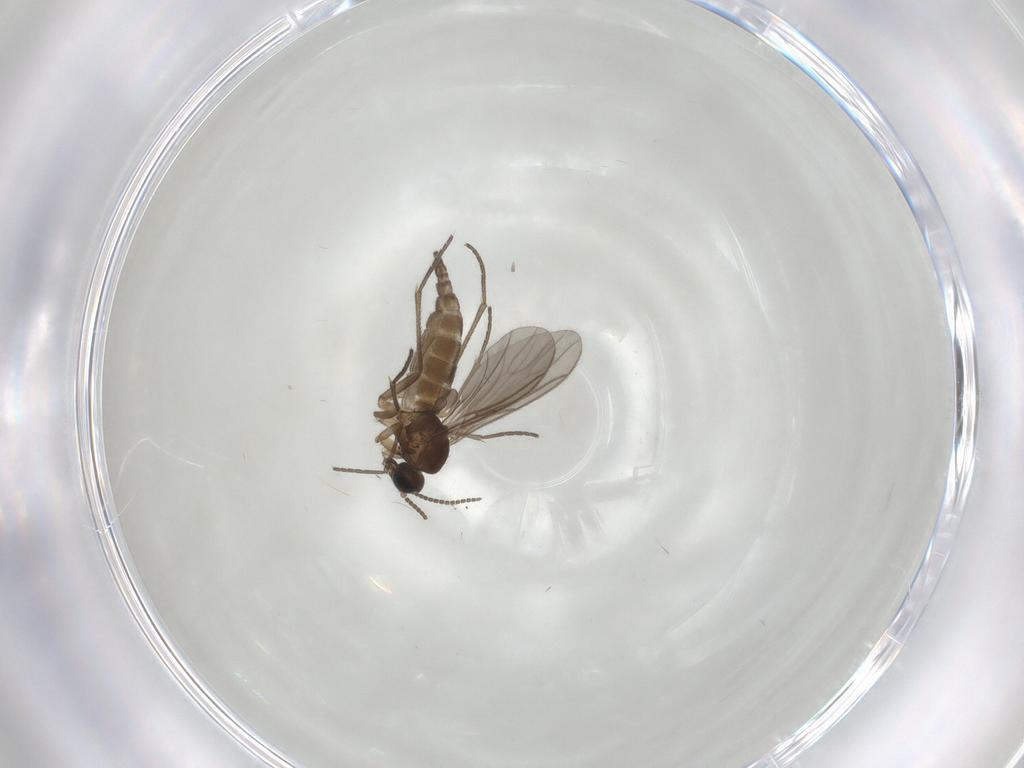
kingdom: Animalia
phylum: Arthropoda
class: Insecta
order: Diptera
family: Sciaridae
